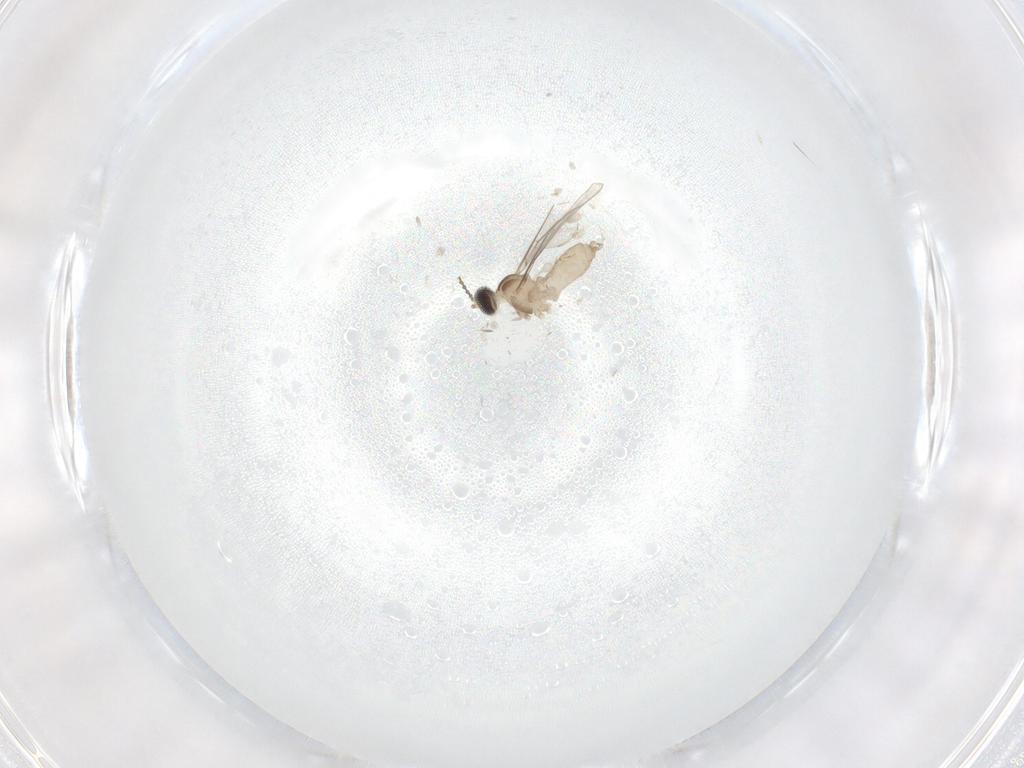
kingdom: Animalia
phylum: Arthropoda
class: Insecta
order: Diptera
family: Cecidomyiidae
